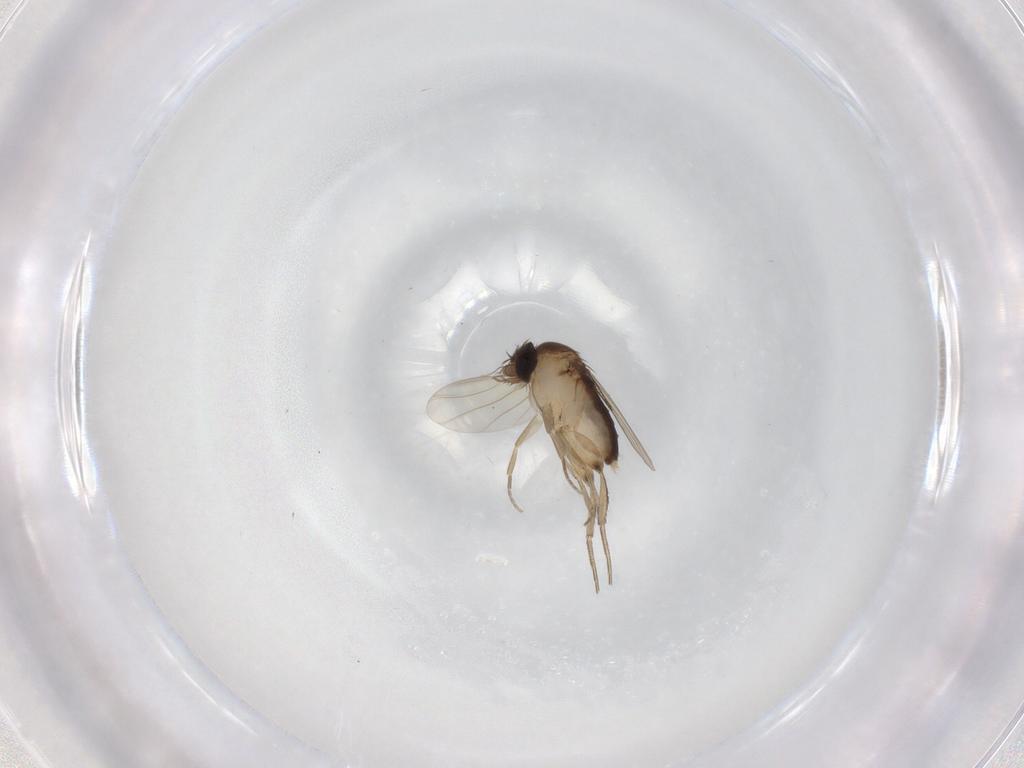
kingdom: Animalia
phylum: Arthropoda
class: Insecta
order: Diptera
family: Phoridae
